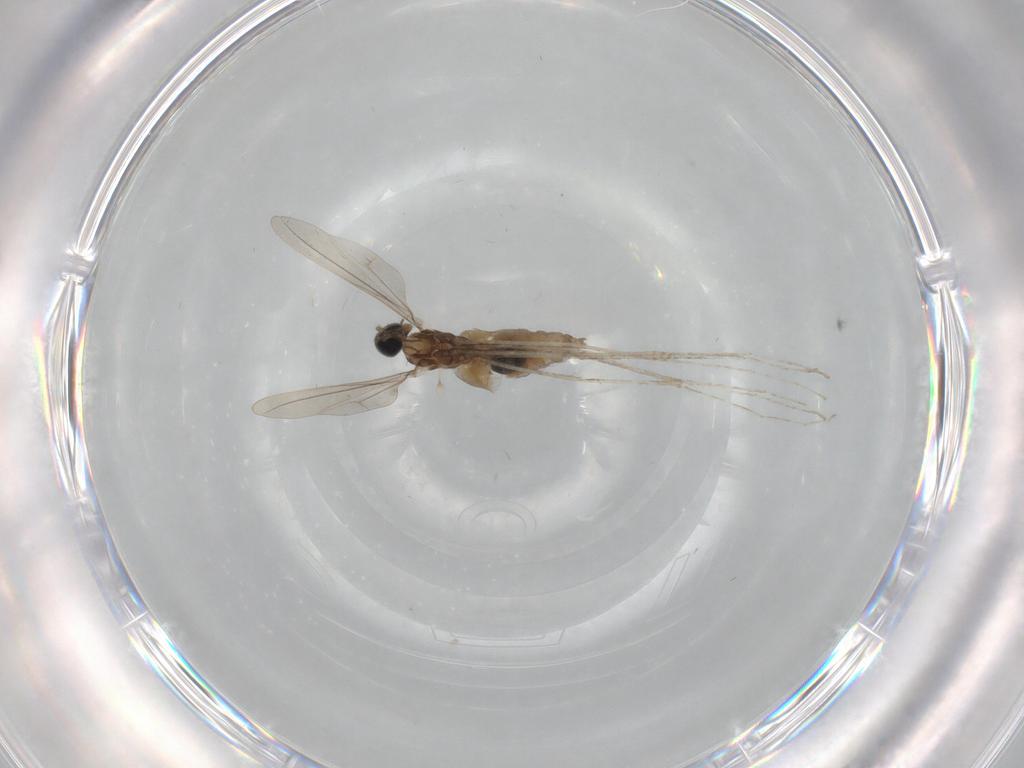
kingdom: Animalia
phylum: Arthropoda
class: Insecta
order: Diptera
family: Cecidomyiidae
